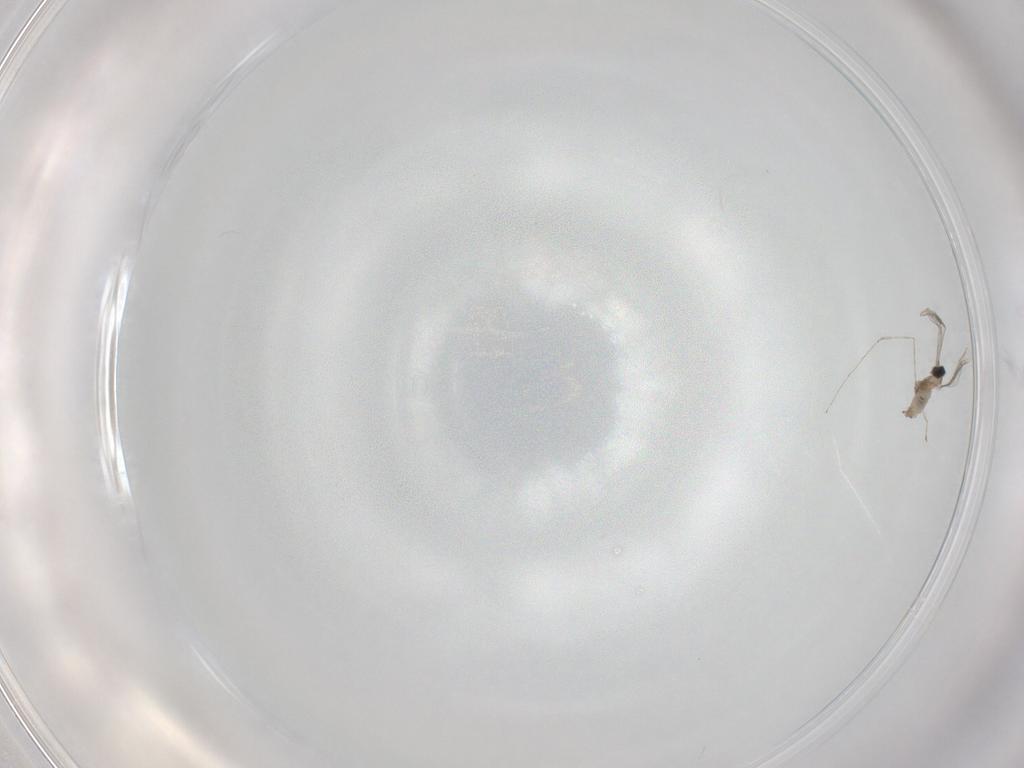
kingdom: Animalia
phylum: Arthropoda
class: Insecta
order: Diptera
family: Cecidomyiidae
